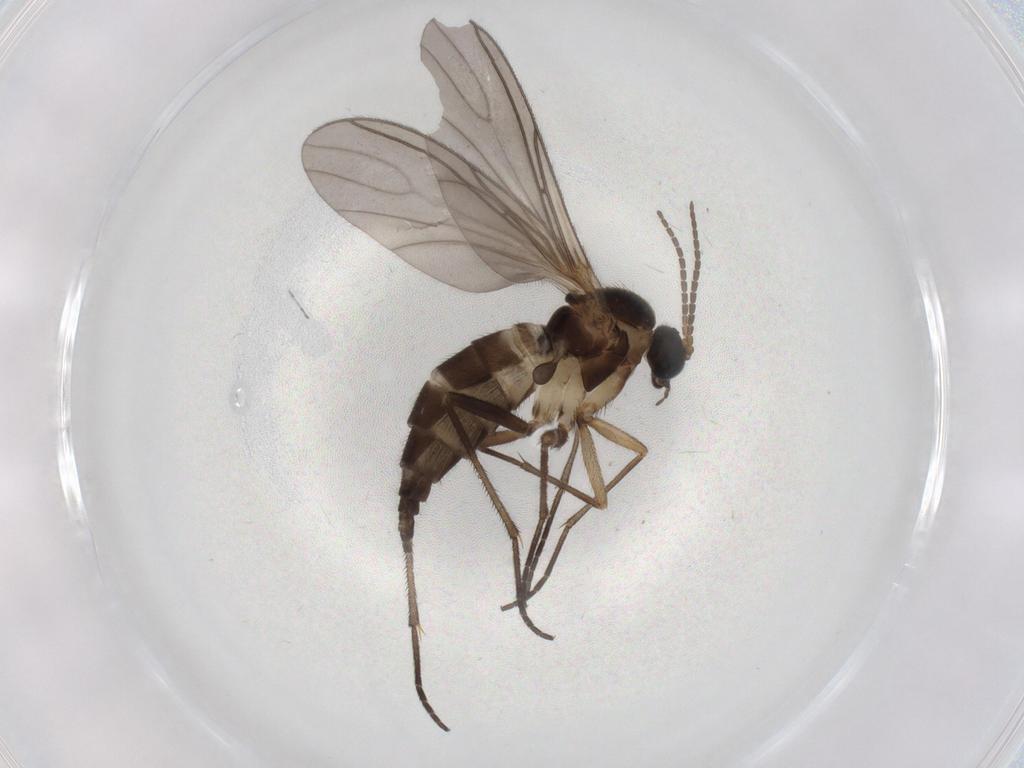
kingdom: Animalia
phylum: Arthropoda
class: Insecta
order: Diptera
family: Sciaridae
